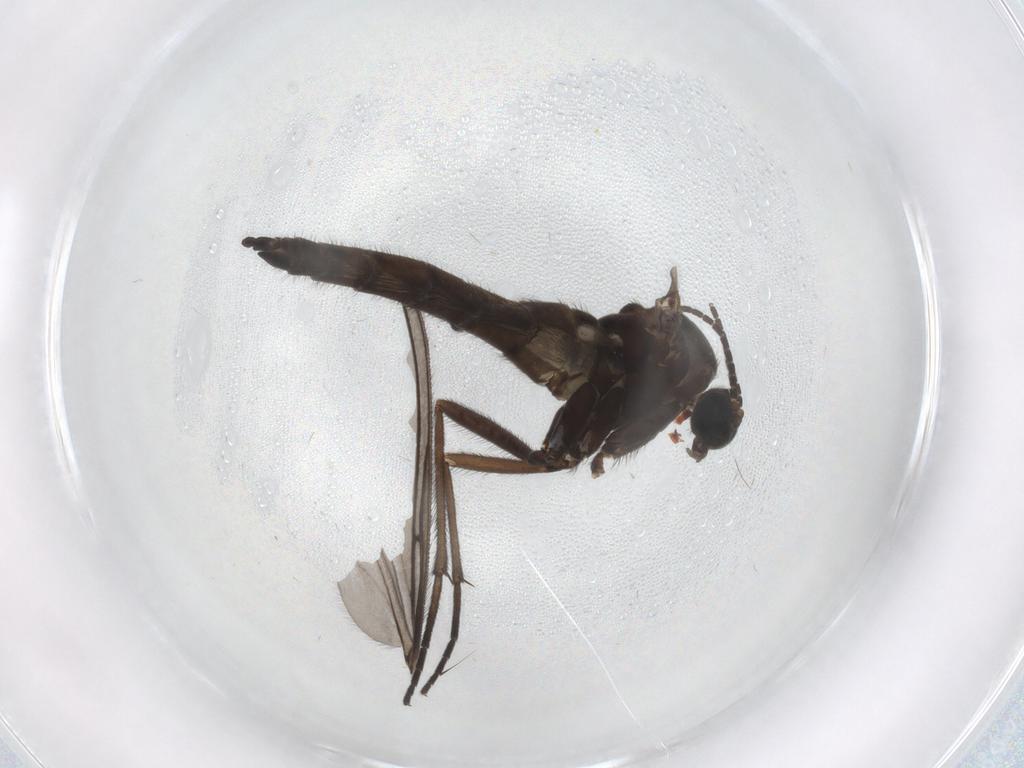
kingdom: Animalia
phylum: Arthropoda
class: Insecta
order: Diptera
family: Sciaridae
